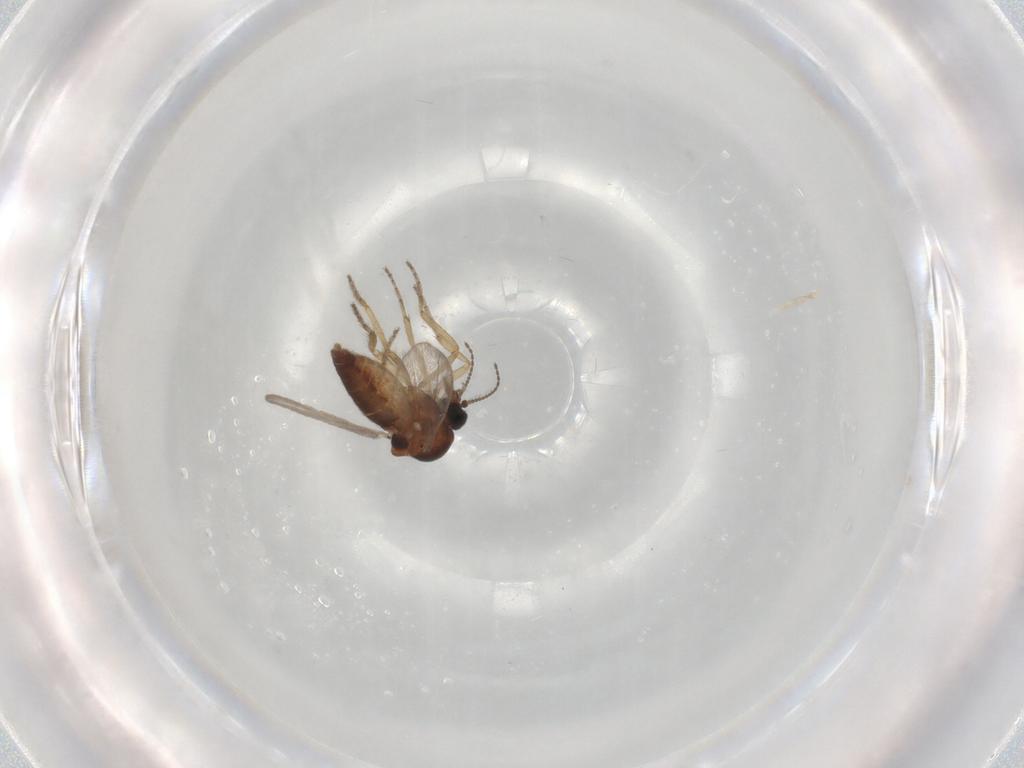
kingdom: Animalia
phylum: Arthropoda
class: Insecta
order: Diptera
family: Ceratopogonidae
